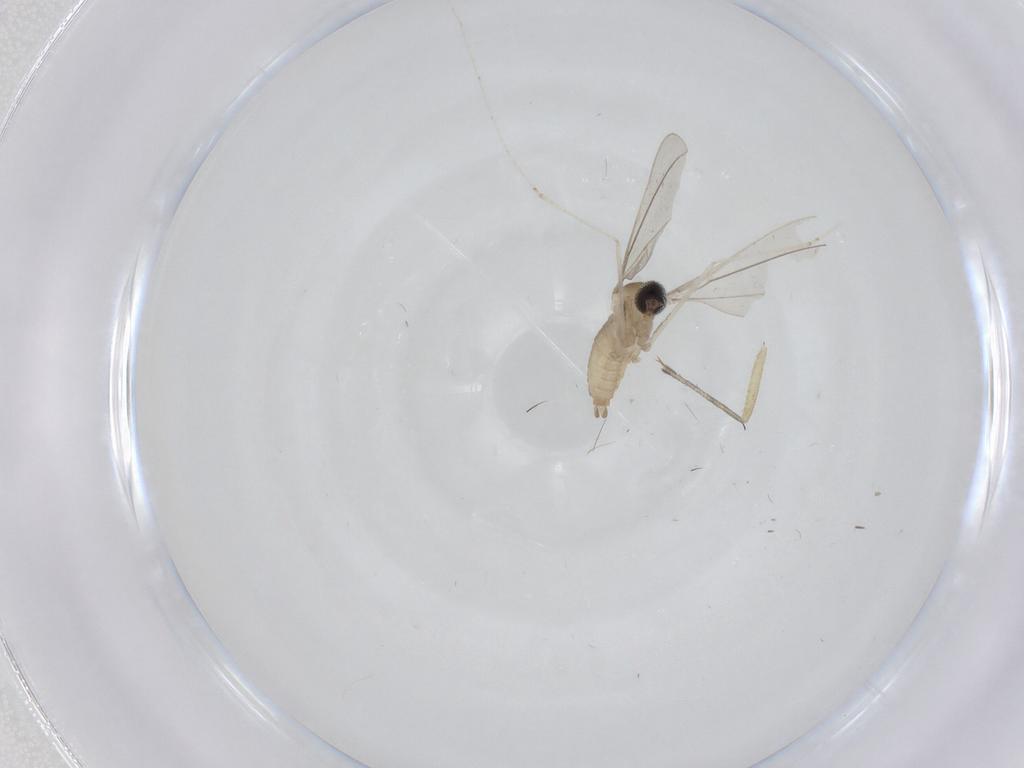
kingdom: Animalia
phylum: Arthropoda
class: Insecta
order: Diptera
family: Cecidomyiidae
